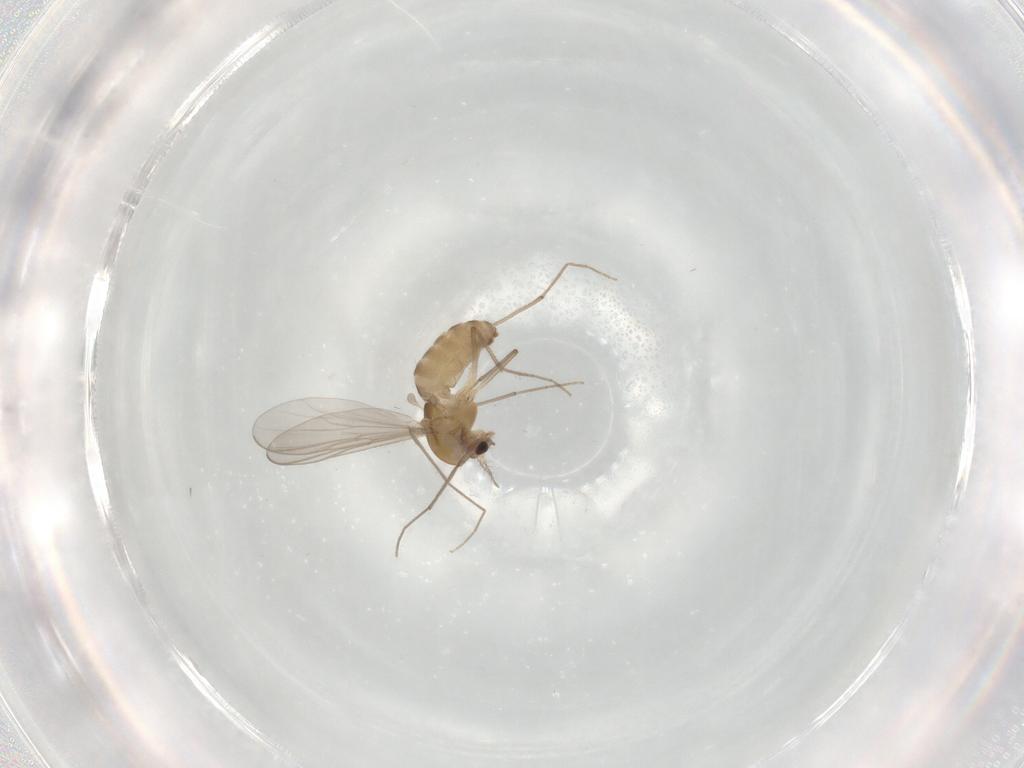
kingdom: Animalia
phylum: Arthropoda
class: Insecta
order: Diptera
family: Chironomidae
